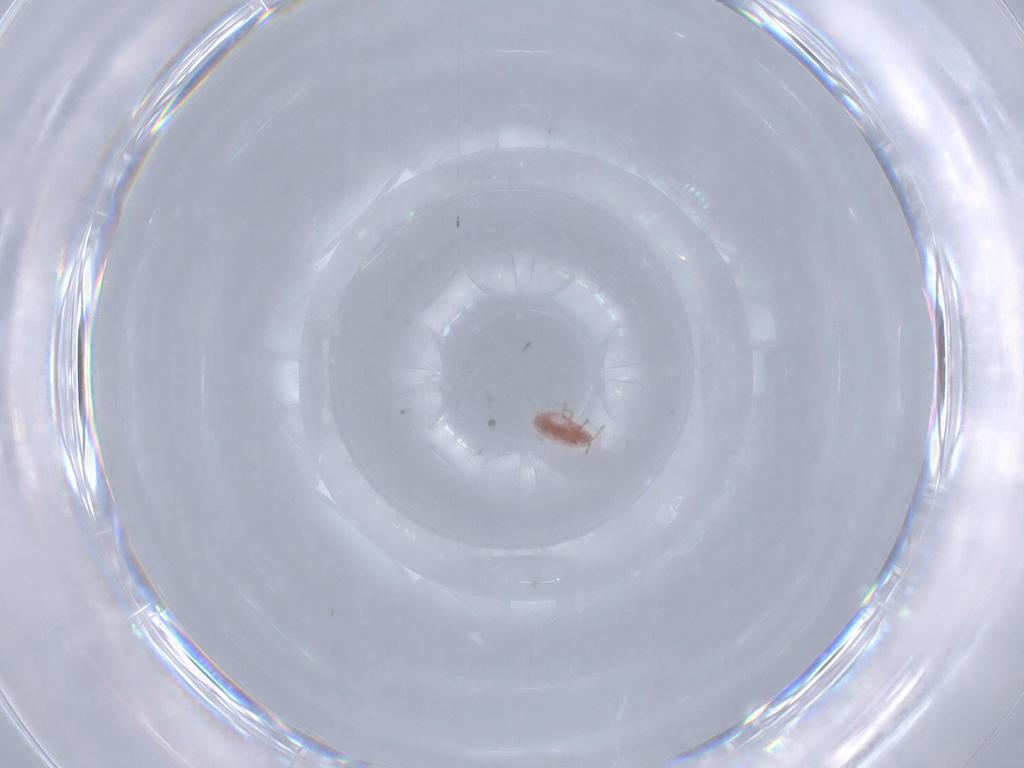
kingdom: Animalia
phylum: Arthropoda
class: Insecta
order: Hemiptera
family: Pseudococcidae
